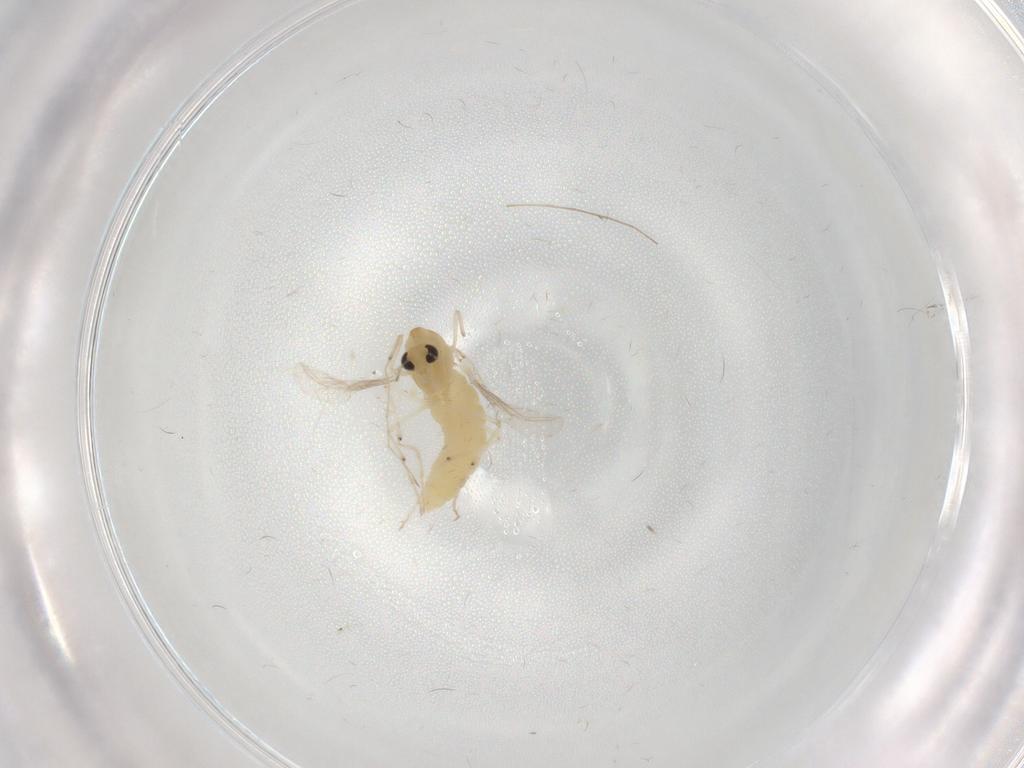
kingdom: Animalia
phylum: Arthropoda
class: Insecta
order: Diptera
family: Chironomidae
